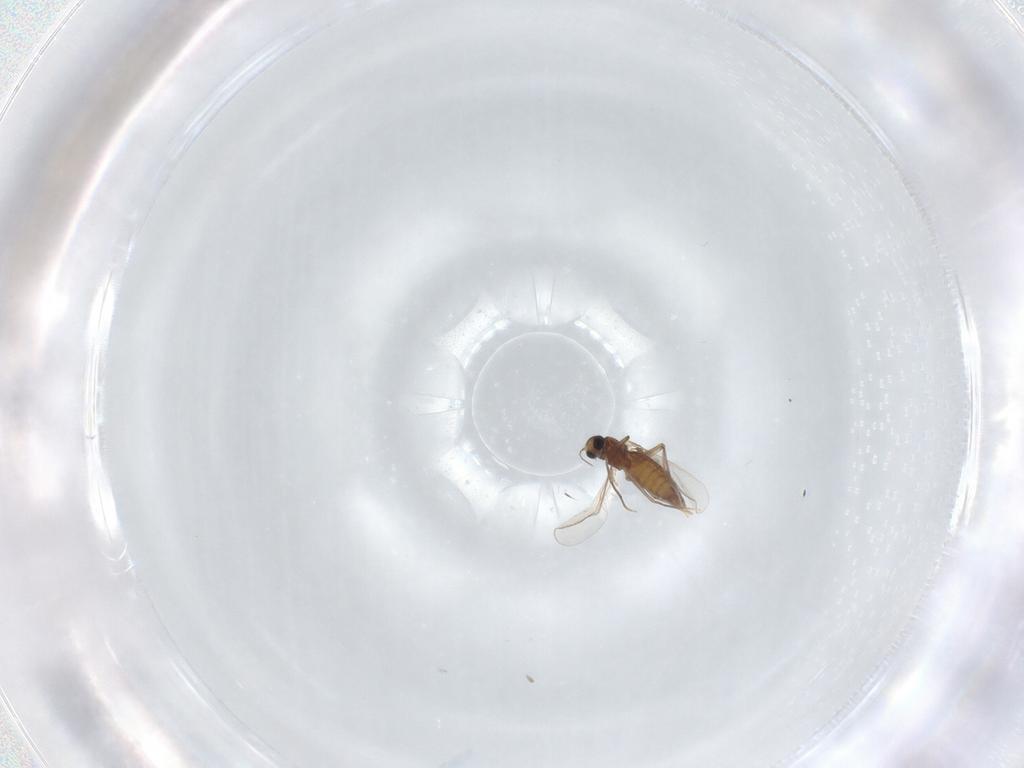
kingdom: Animalia
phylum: Arthropoda
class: Insecta
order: Diptera
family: Chironomidae
